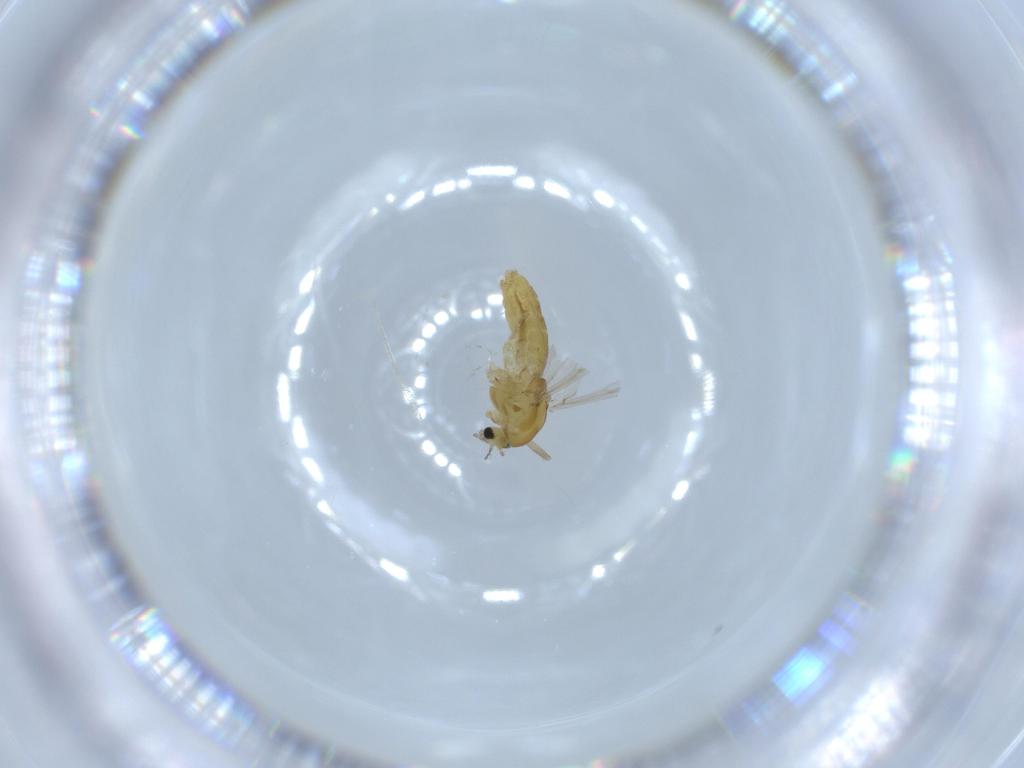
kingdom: Animalia
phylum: Arthropoda
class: Insecta
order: Diptera
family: Chironomidae
